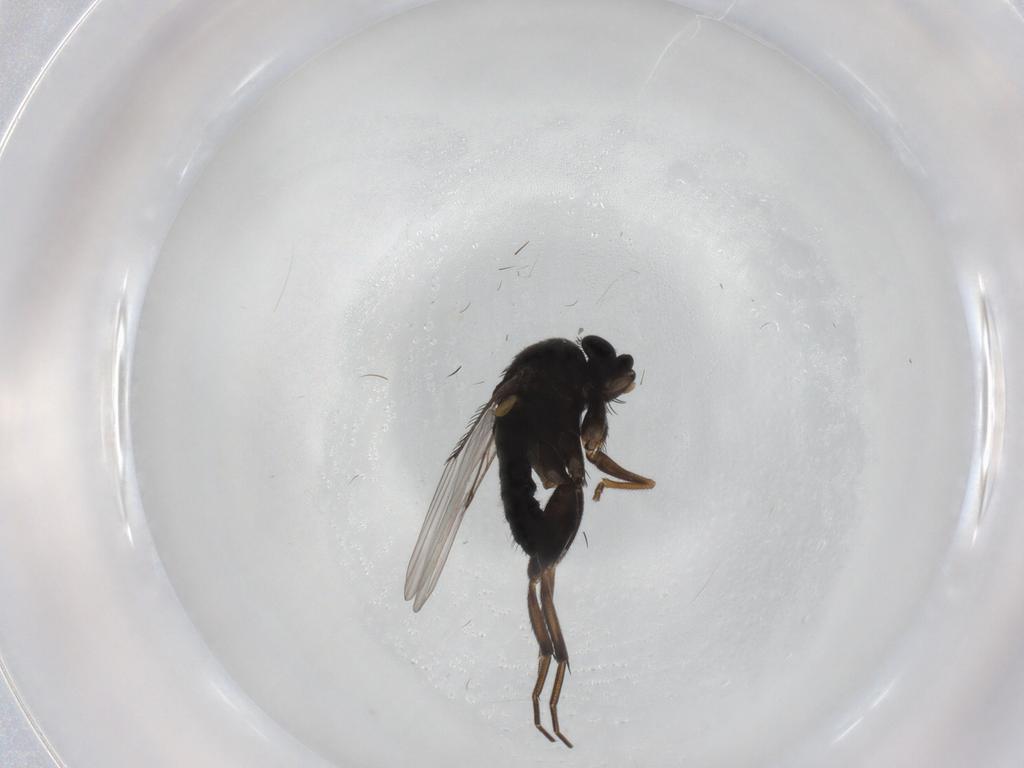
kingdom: Animalia
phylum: Arthropoda
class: Insecta
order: Diptera
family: Phoridae
